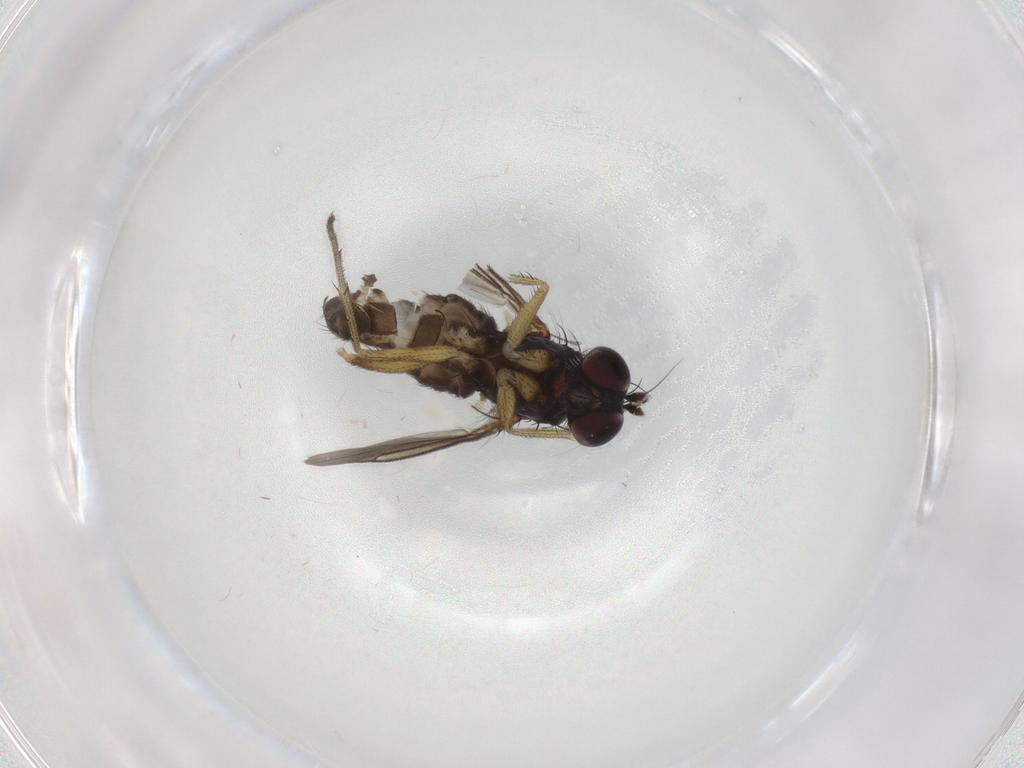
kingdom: Animalia
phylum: Arthropoda
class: Insecta
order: Diptera
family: Dolichopodidae
